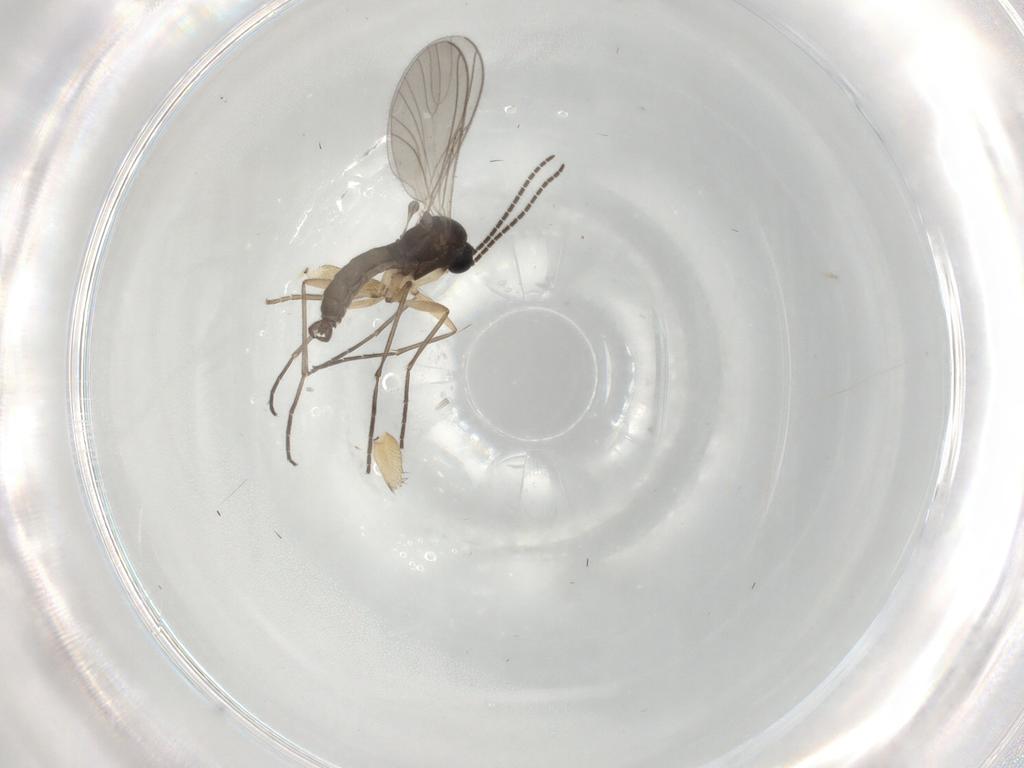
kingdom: Animalia
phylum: Arthropoda
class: Insecta
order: Diptera
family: Sciaridae
